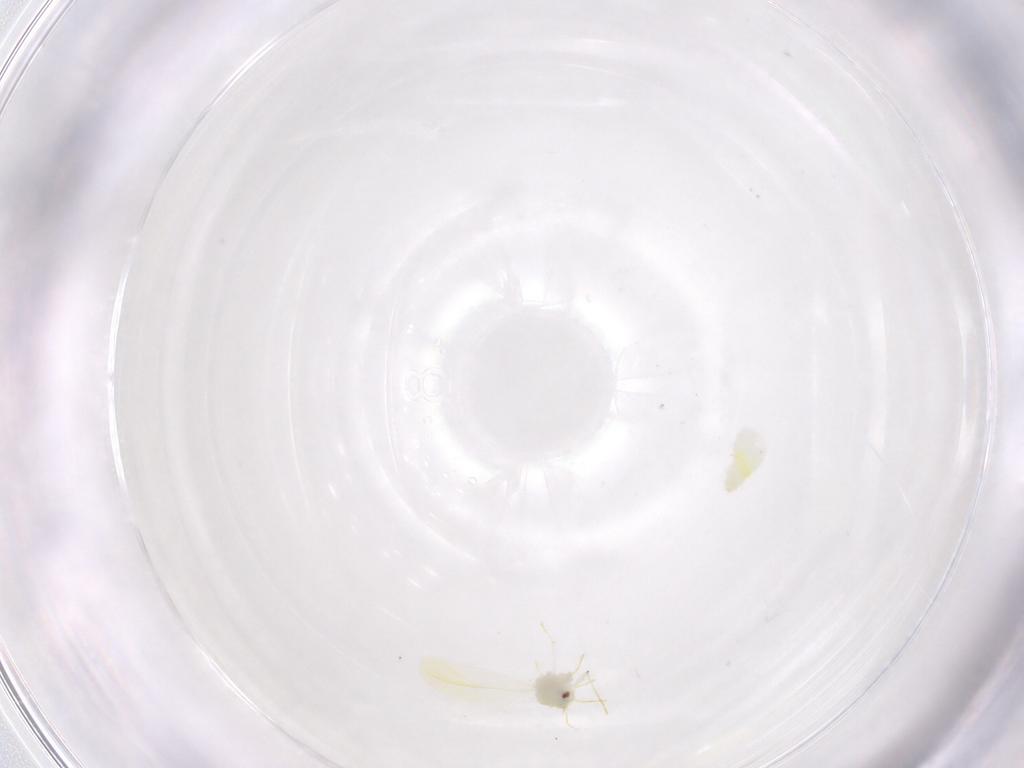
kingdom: Animalia
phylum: Arthropoda
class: Insecta
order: Hemiptera
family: Aleyrodidae
